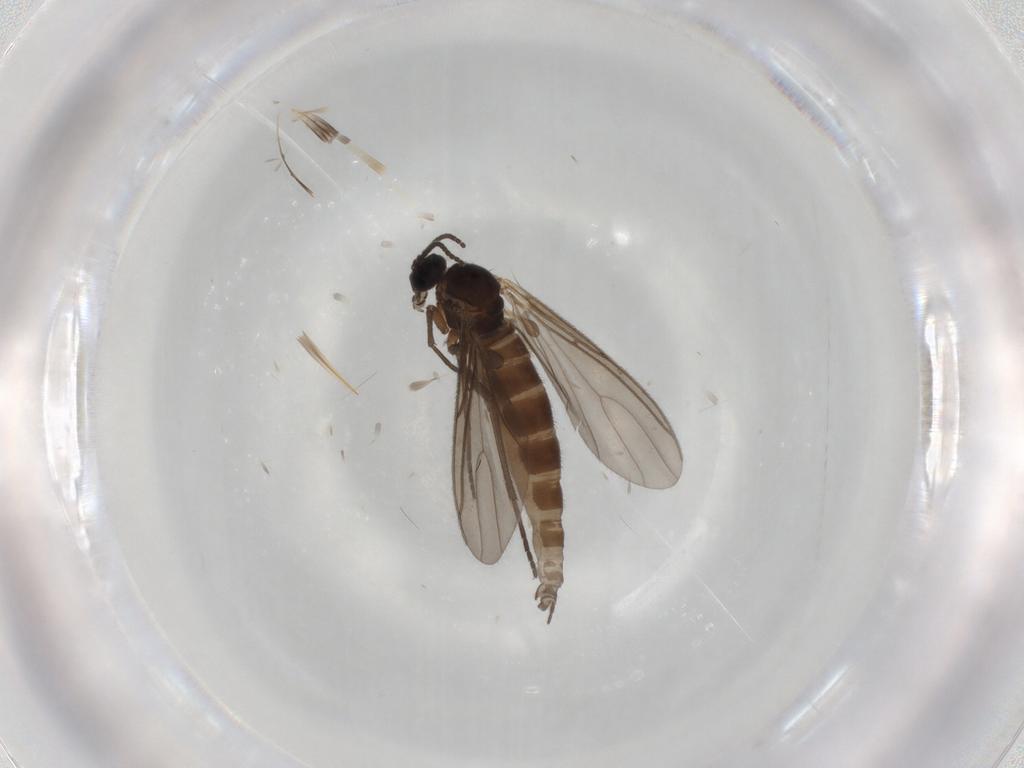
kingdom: Animalia
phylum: Arthropoda
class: Insecta
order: Diptera
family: Sciaridae
